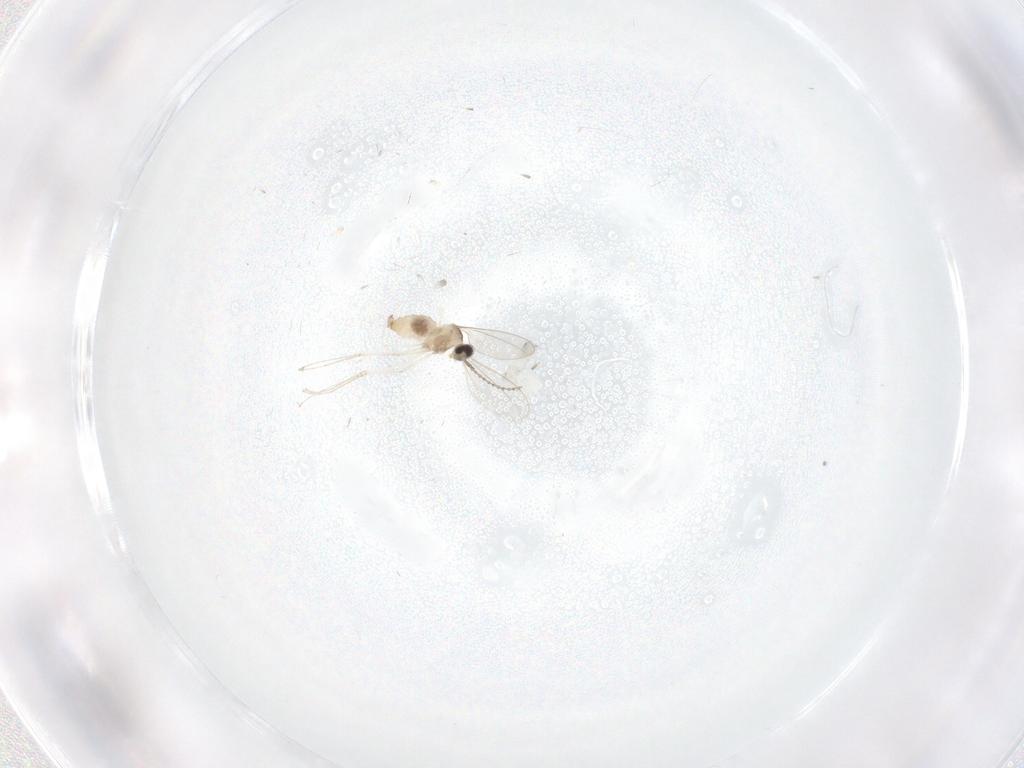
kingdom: Animalia
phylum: Arthropoda
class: Insecta
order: Diptera
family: Cecidomyiidae
